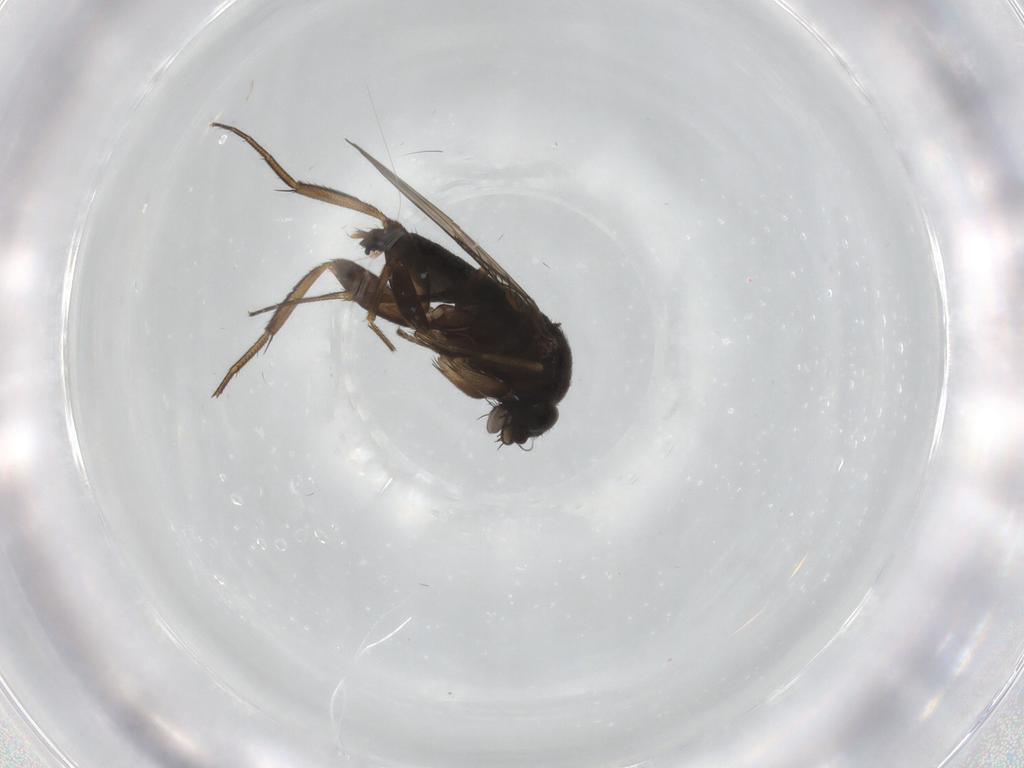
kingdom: Animalia
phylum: Arthropoda
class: Insecta
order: Diptera
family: Phoridae
